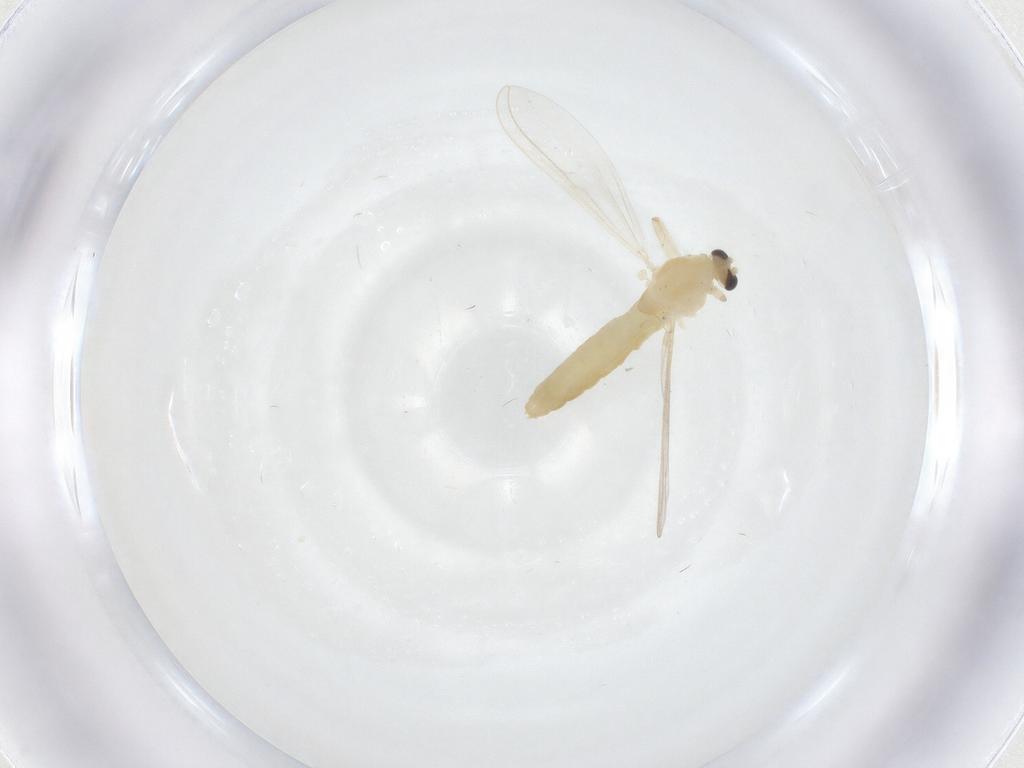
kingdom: Animalia
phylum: Arthropoda
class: Insecta
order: Diptera
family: Chironomidae
